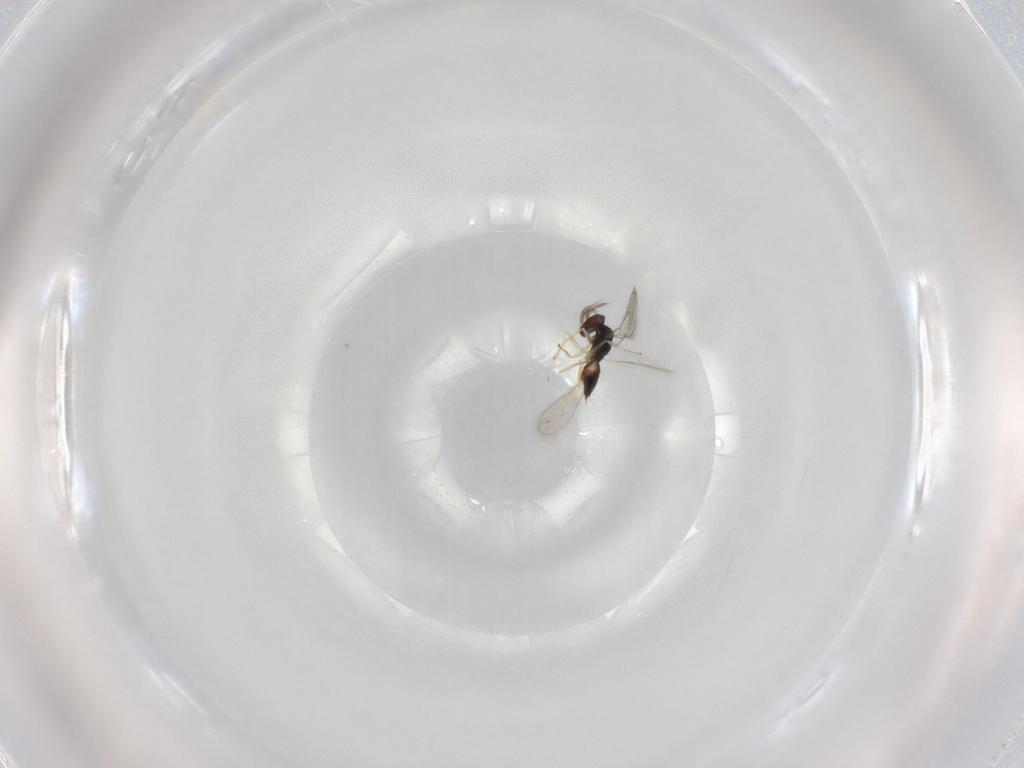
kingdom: Animalia
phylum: Arthropoda
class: Insecta
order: Hymenoptera
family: Eulophidae
